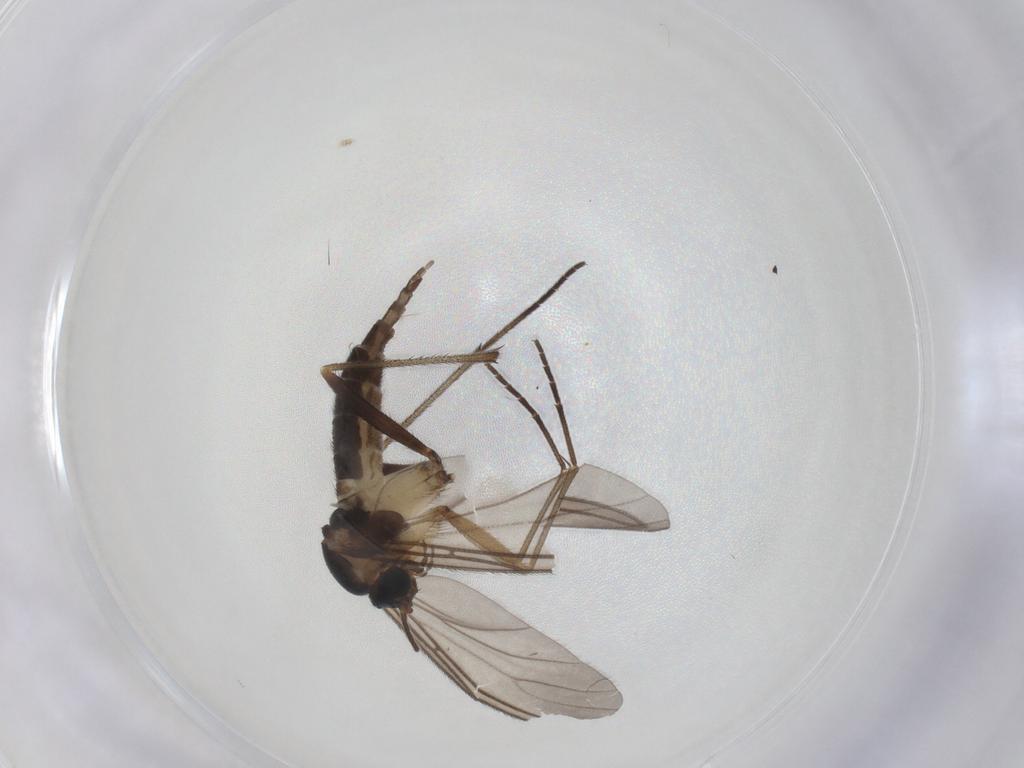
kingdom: Animalia
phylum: Arthropoda
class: Insecta
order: Diptera
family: Sciaridae
